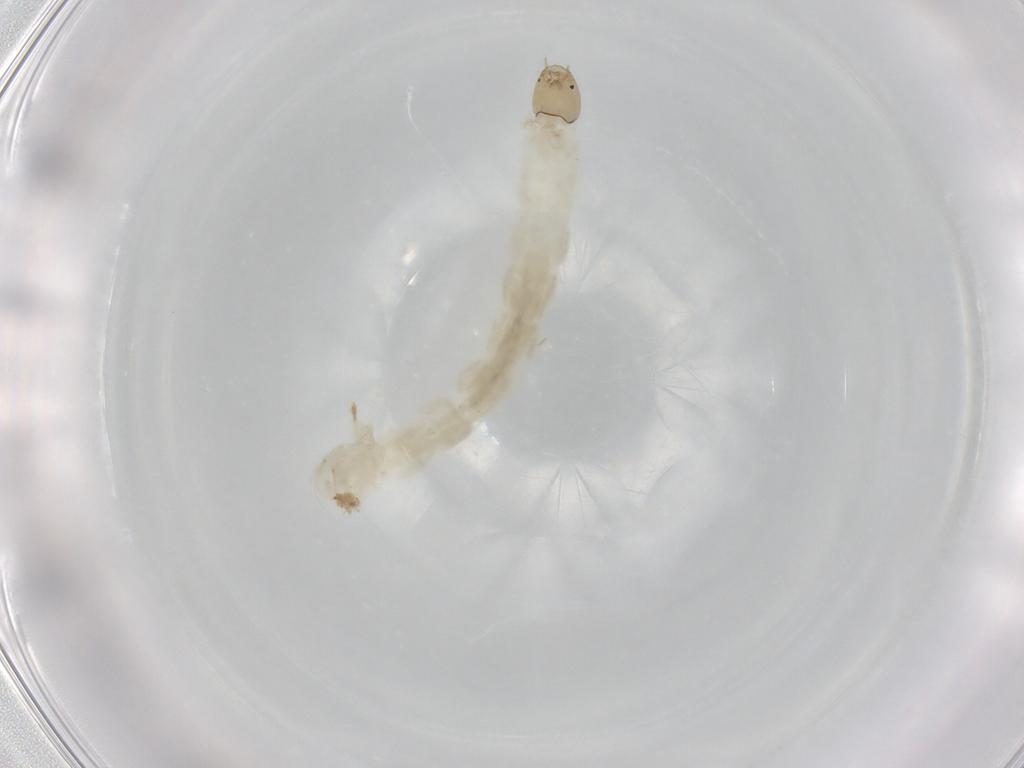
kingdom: Animalia
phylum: Arthropoda
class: Insecta
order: Diptera
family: Chironomidae
